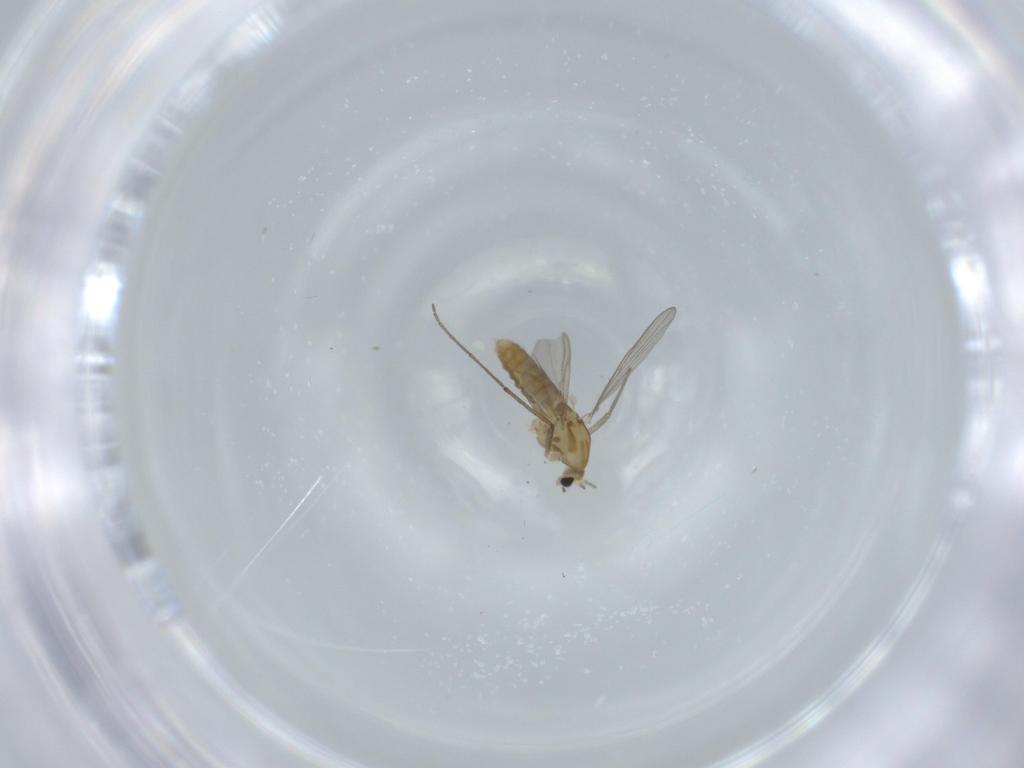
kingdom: Animalia
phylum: Arthropoda
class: Insecta
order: Diptera
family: Chironomidae
